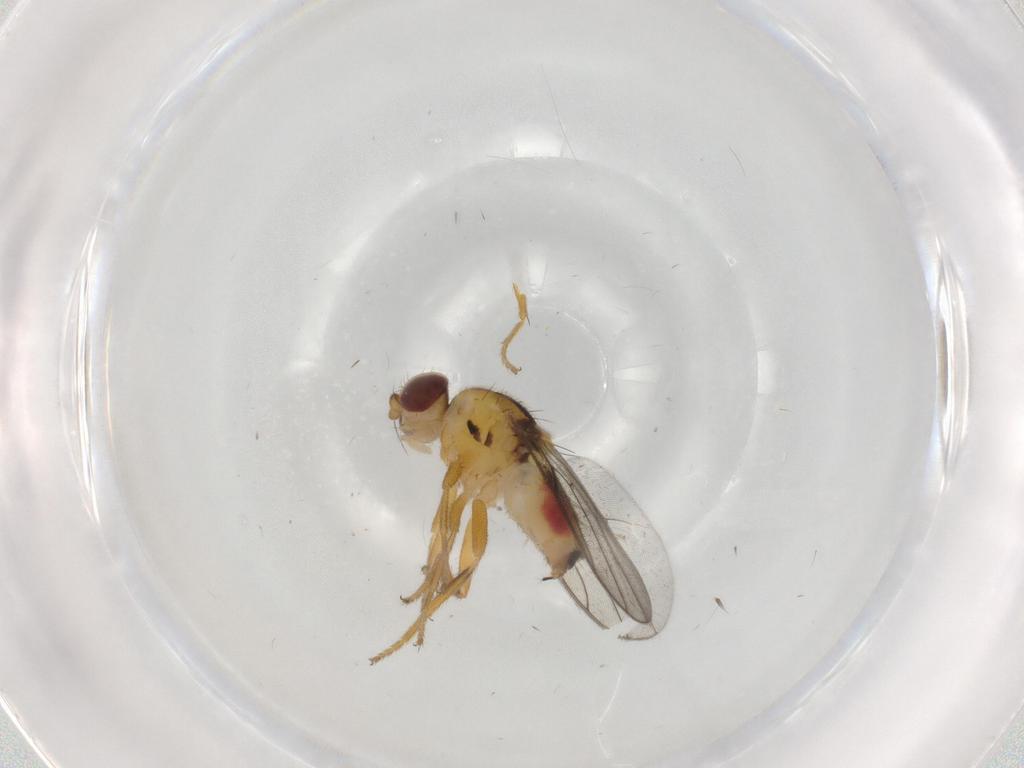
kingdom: Animalia
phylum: Arthropoda
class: Insecta
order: Diptera
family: Chloropidae
